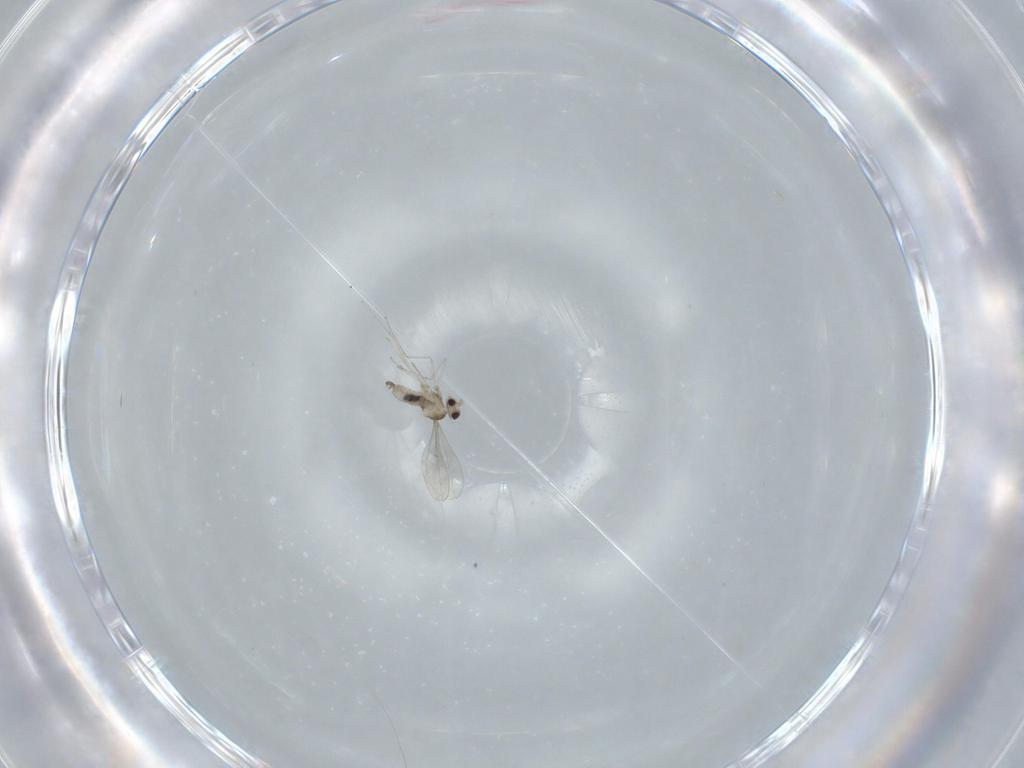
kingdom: Animalia
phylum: Arthropoda
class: Insecta
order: Diptera
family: Cecidomyiidae
